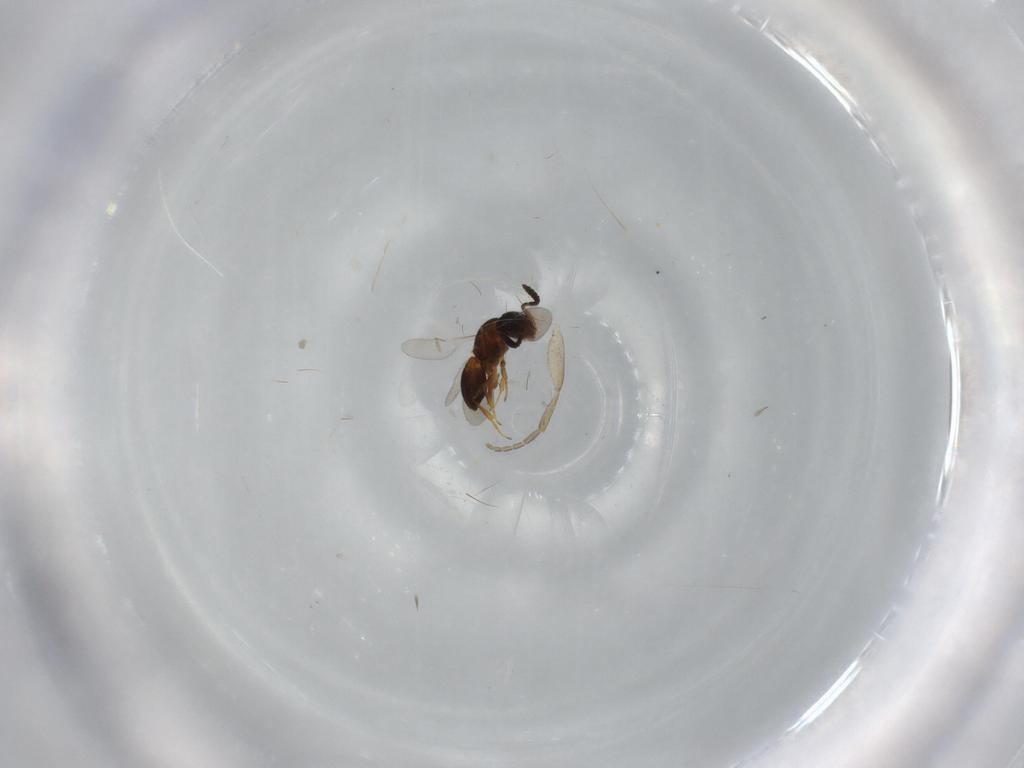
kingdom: Animalia
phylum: Arthropoda
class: Insecta
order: Hymenoptera
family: Scelionidae
